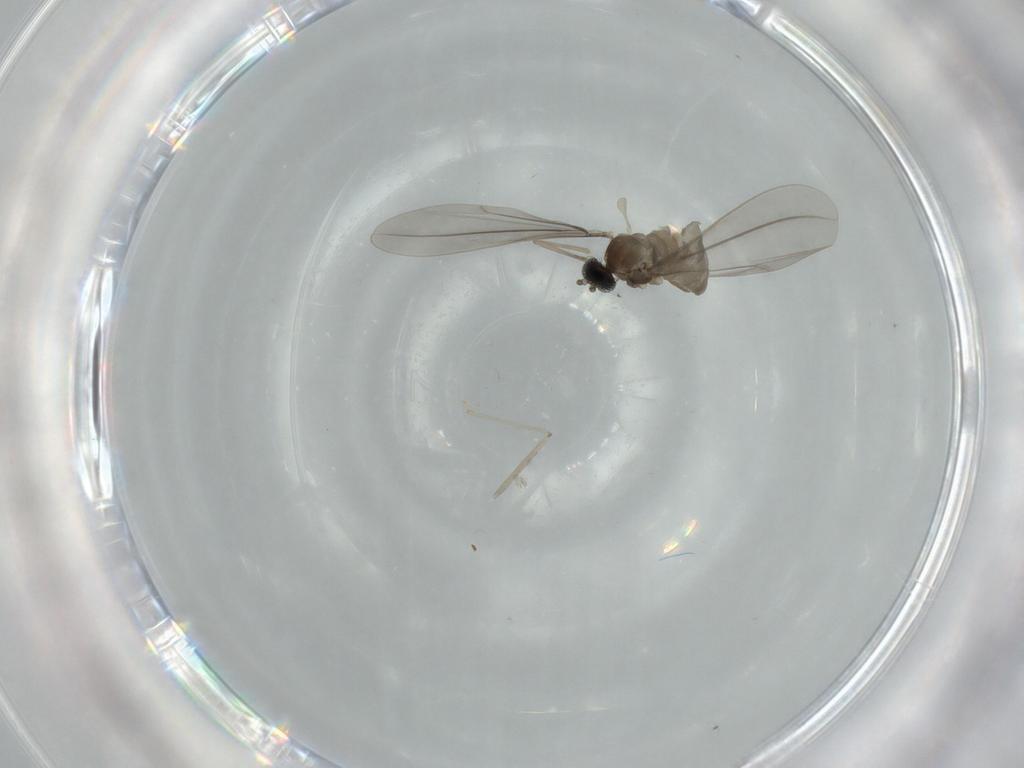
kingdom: Animalia
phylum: Arthropoda
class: Insecta
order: Diptera
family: Cecidomyiidae
